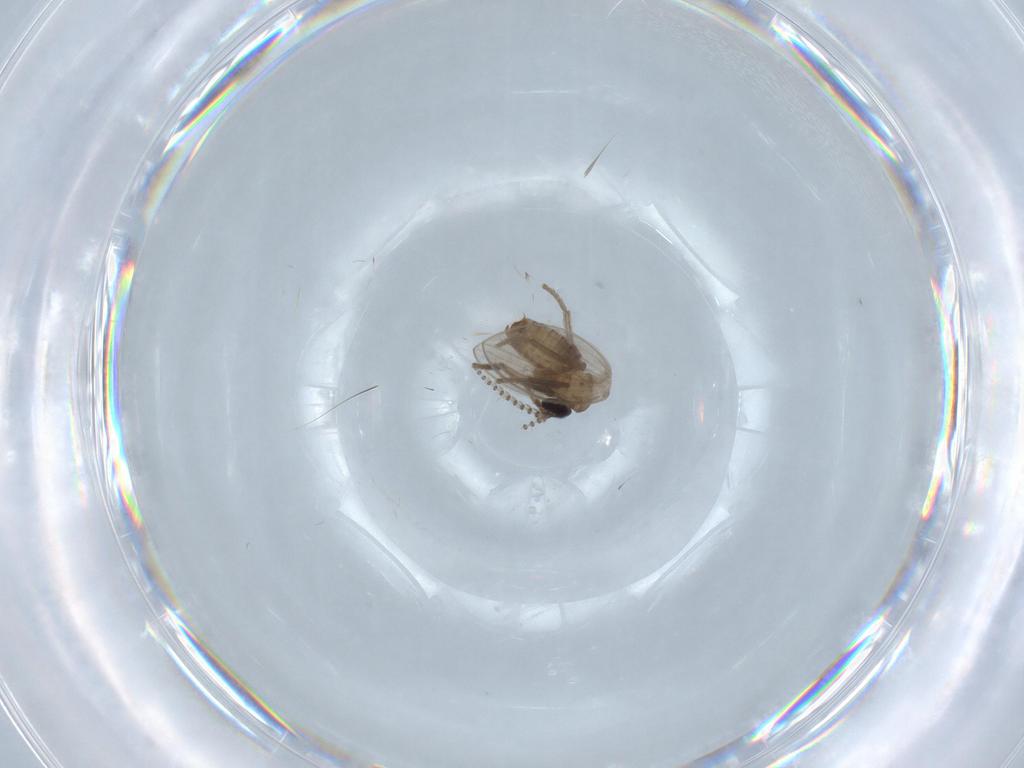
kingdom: Animalia
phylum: Arthropoda
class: Insecta
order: Diptera
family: Psychodidae
